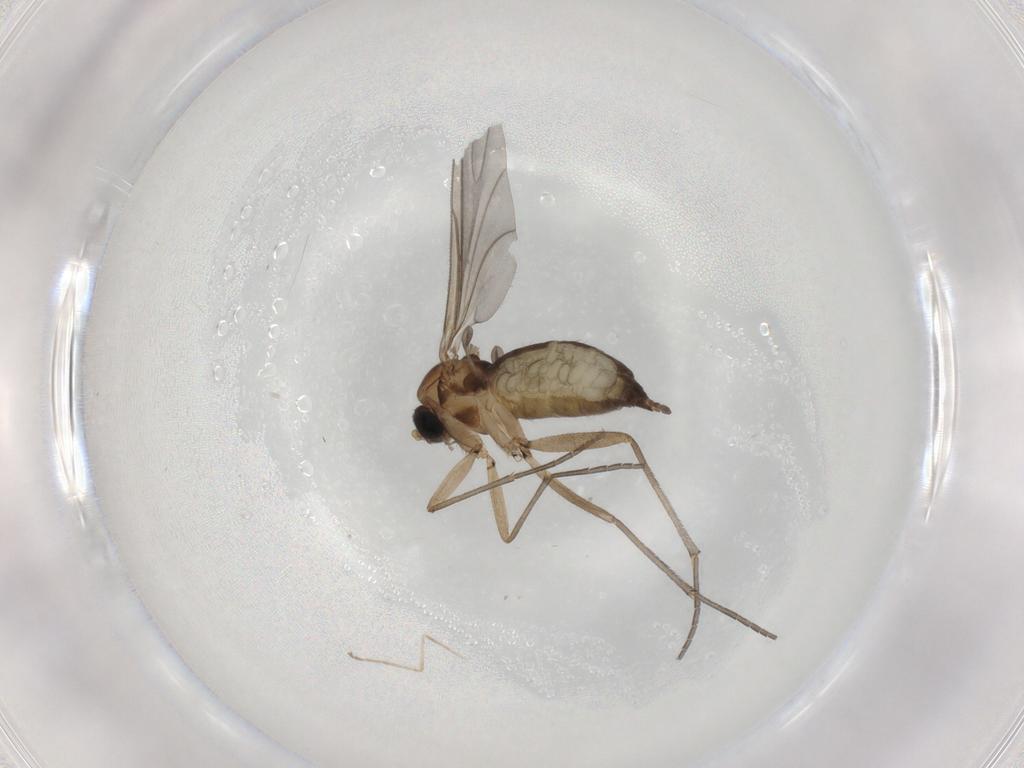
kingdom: Animalia
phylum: Arthropoda
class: Insecta
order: Diptera
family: Sciaridae
